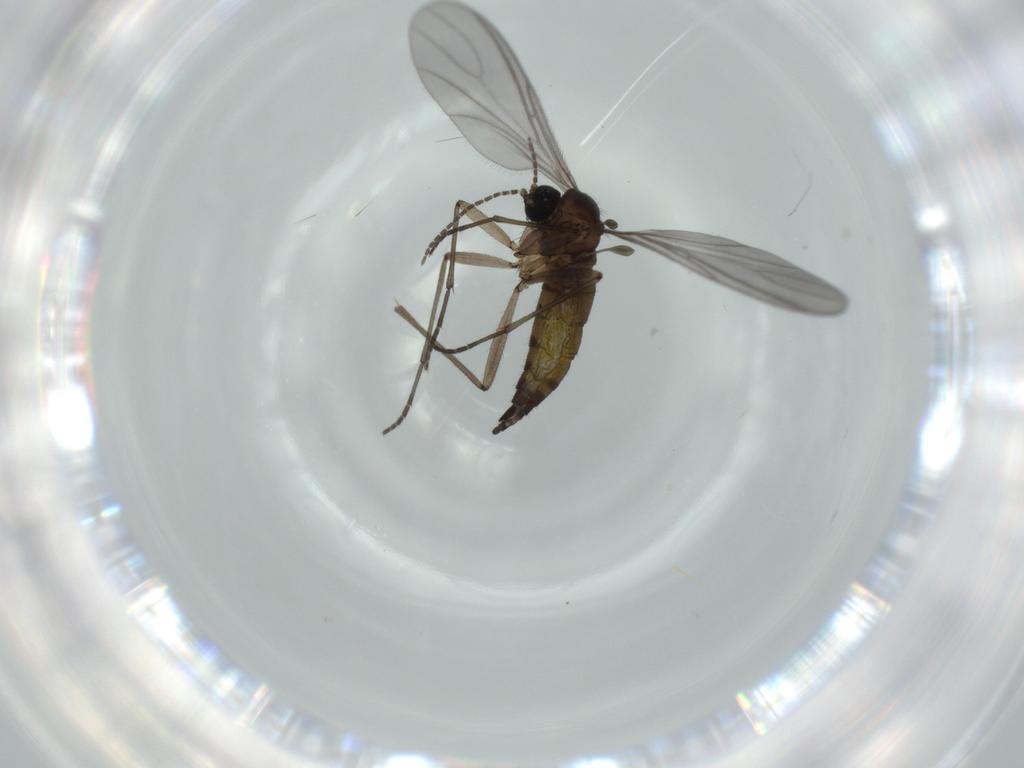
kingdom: Animalia
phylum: Arthropoda
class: Insecta
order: Diptera
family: Sciaridae
